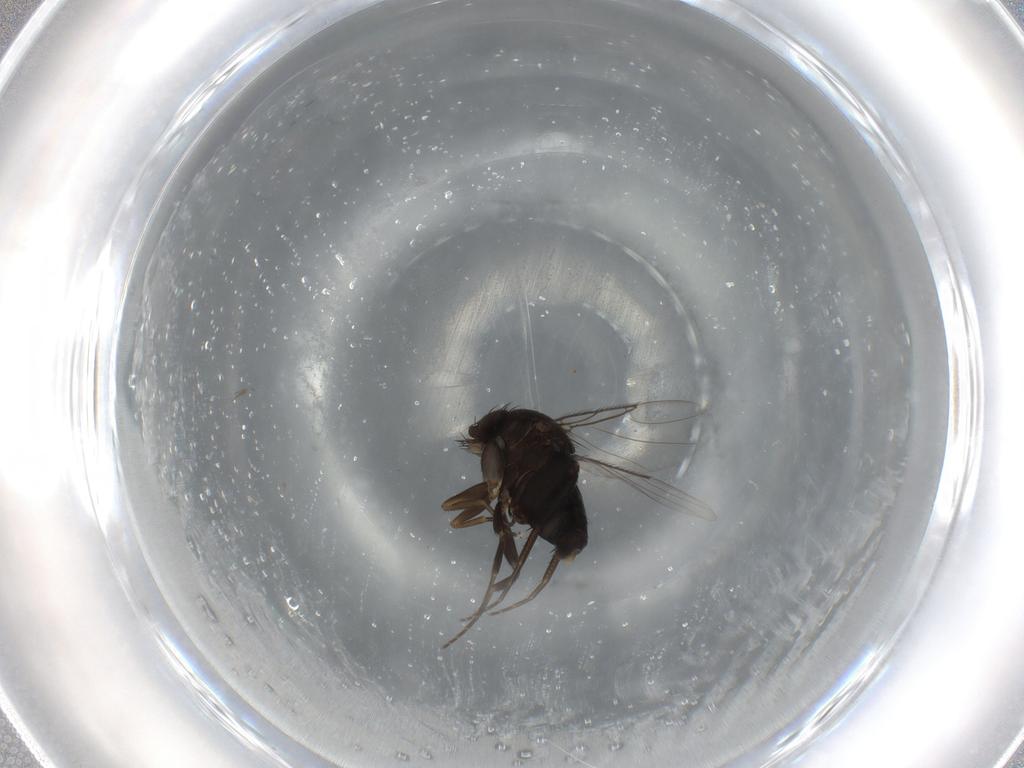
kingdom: Animalia
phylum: Arthropoda
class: Insecta
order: Diptera
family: Phoridae
